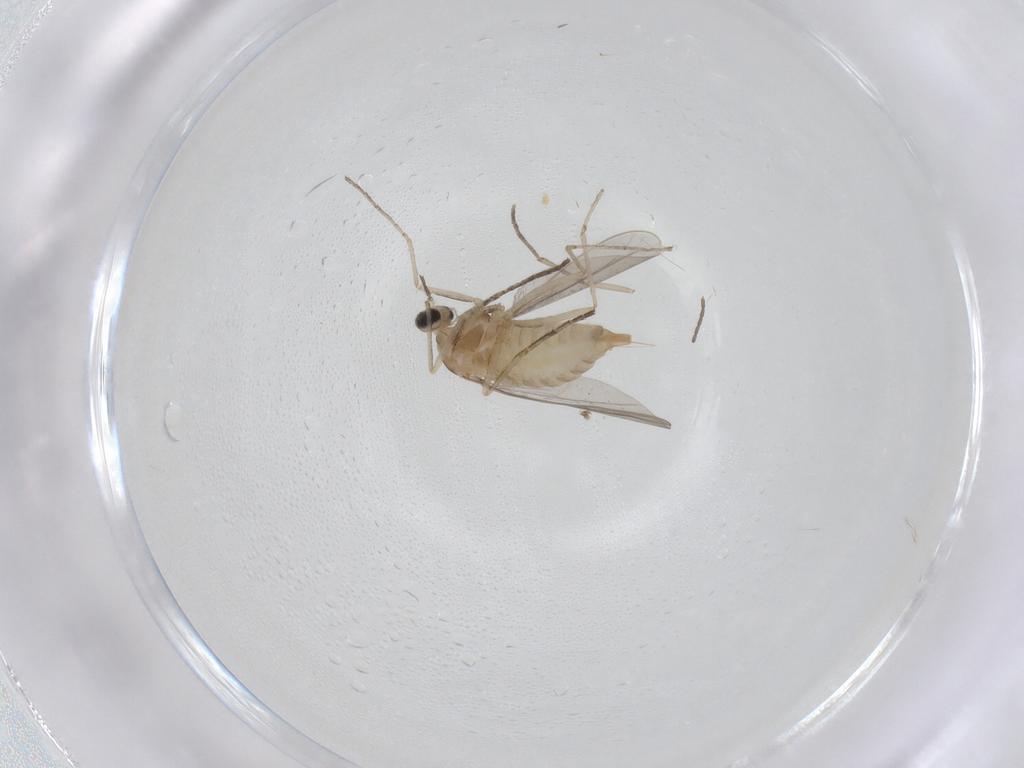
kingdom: Animalia
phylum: Arthropoda
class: Insecta
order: Diptera
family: Cecidomyiidae
